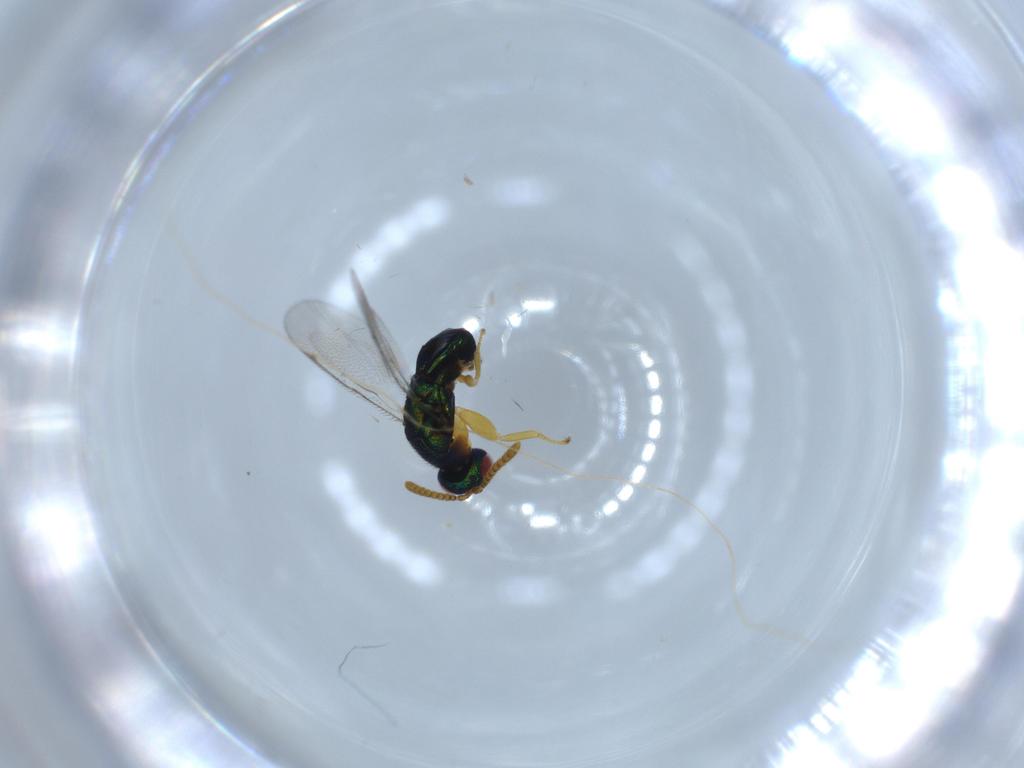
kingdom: Animalia
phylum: Arthropoda
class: Insecta
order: Hymenoptera
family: Torymidae
